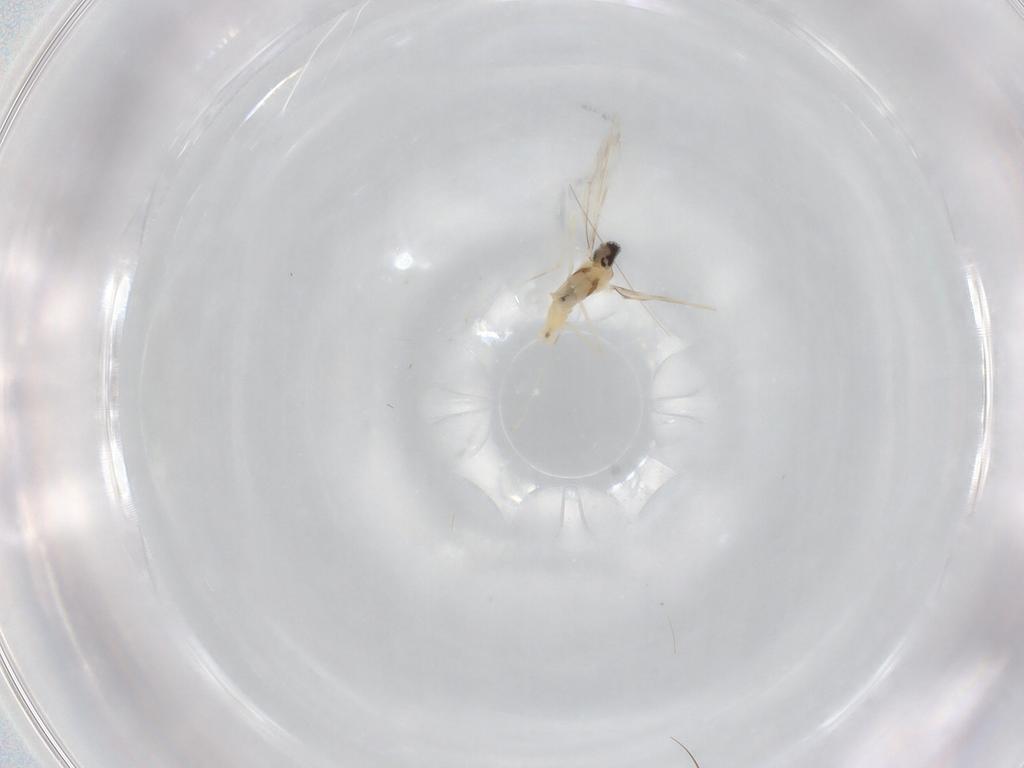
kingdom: Animalia
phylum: Arthropoda
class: Insecta
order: Diptera
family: Cecidomyiidae
